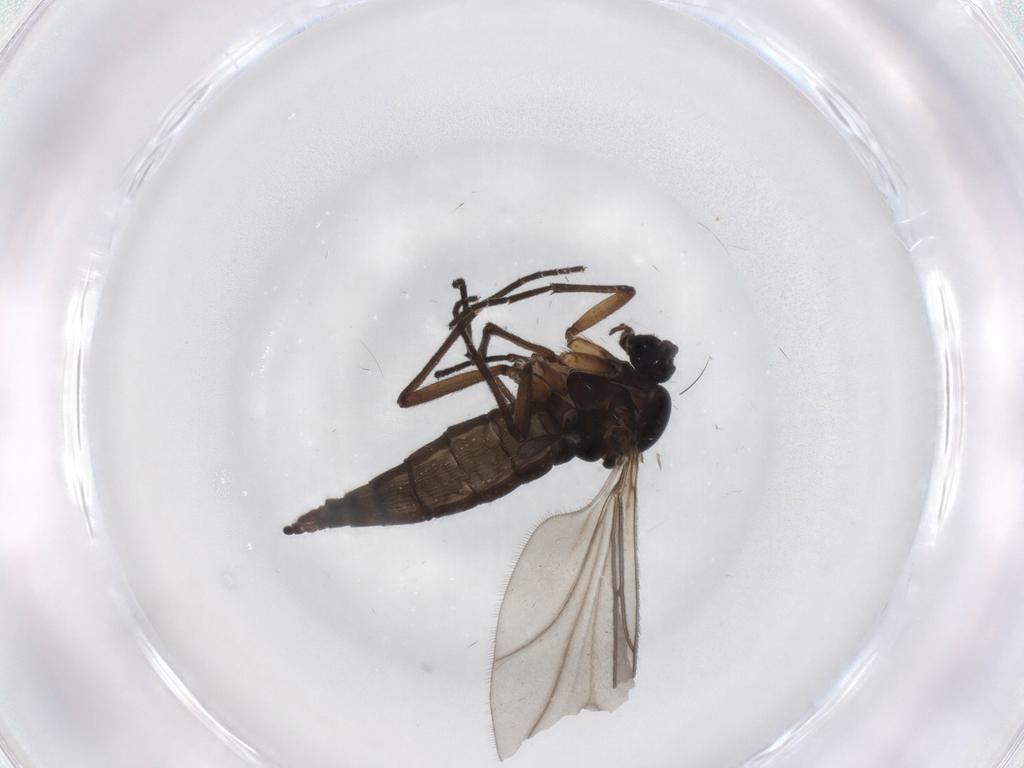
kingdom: Animalia
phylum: Arthropoda
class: Insecta
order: Diptera
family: Sciaridae
